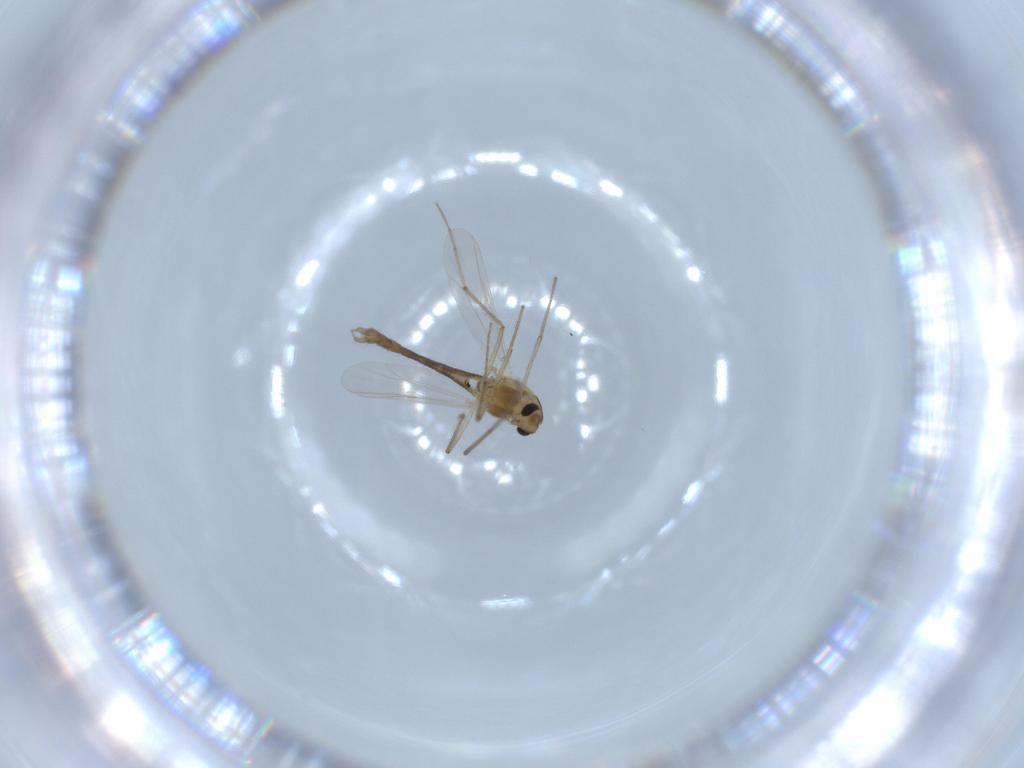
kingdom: Animalia
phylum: Arthropoda
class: Insecta
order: Diptera
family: Chironomidae
